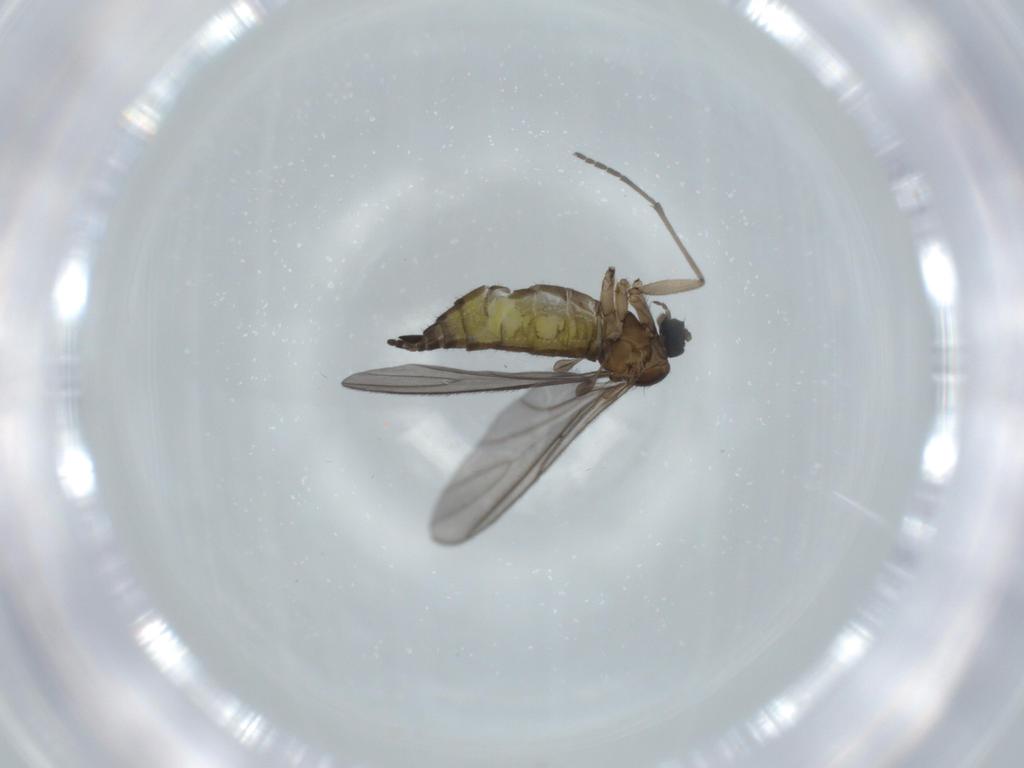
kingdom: Animalia
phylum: Arthropoda
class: Insecta
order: Diptera
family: Sciaridae
